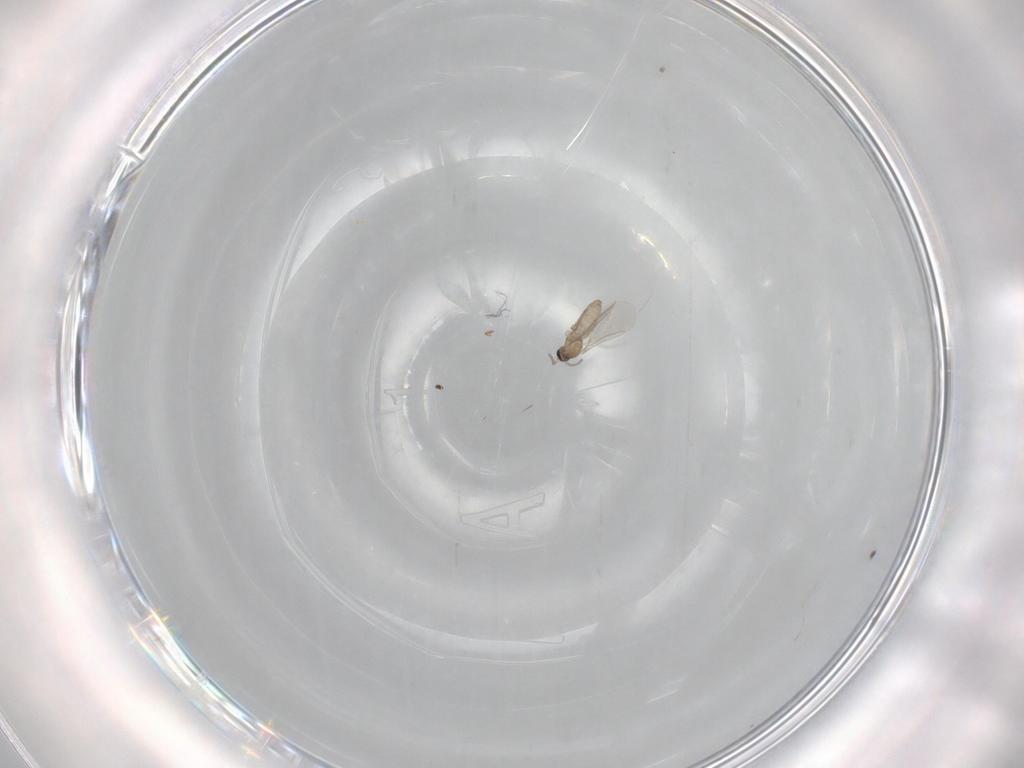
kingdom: Animalia
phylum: Arthropoda
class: Insecta
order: Diptera
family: Cecidomyiidae
